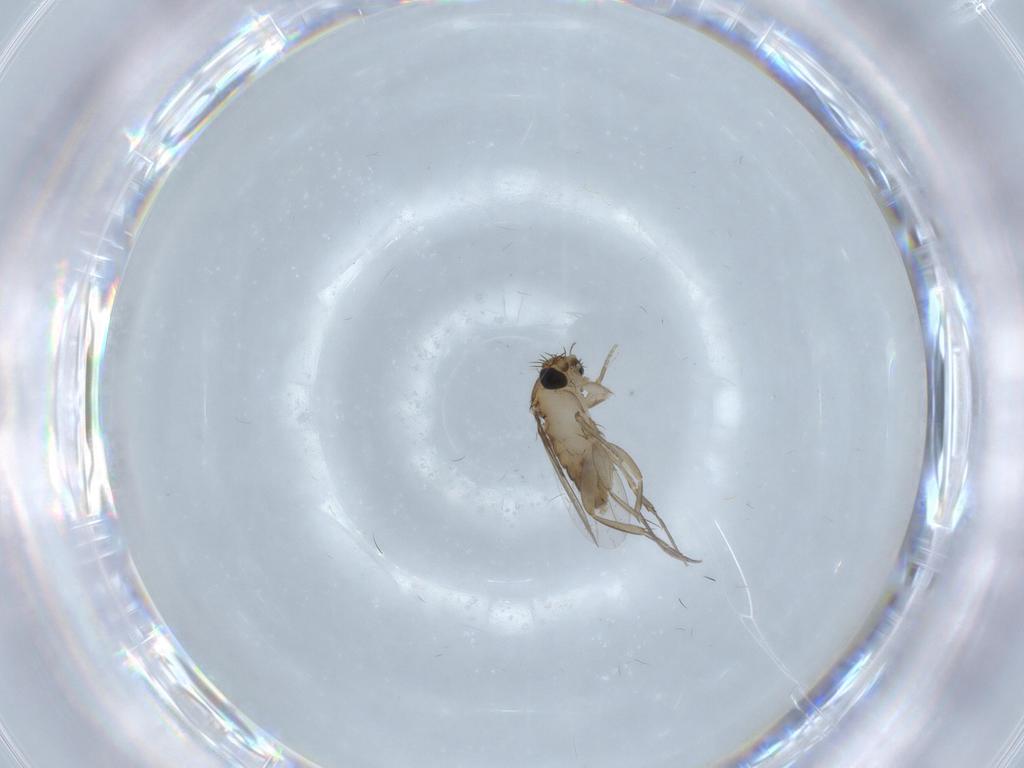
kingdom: Animalia
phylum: Arthropoda
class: Insecta
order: Diptera
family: Phoridae
